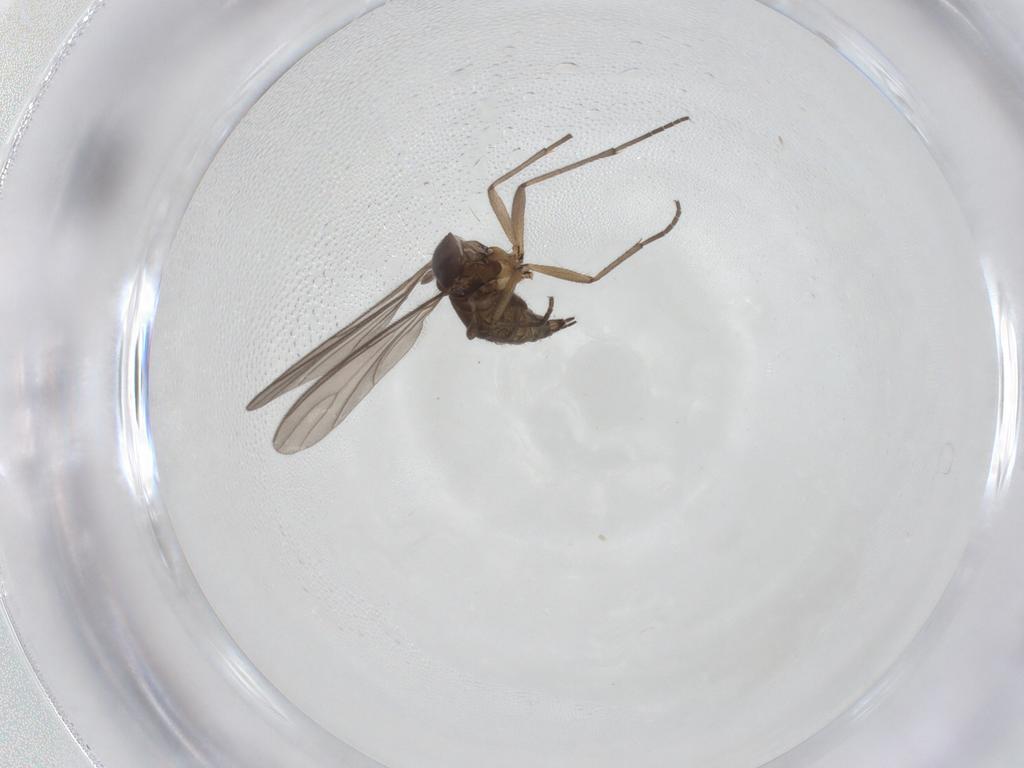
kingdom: Animalia
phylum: Arthropoda
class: Insecta
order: Diptera
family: Sciaridae
